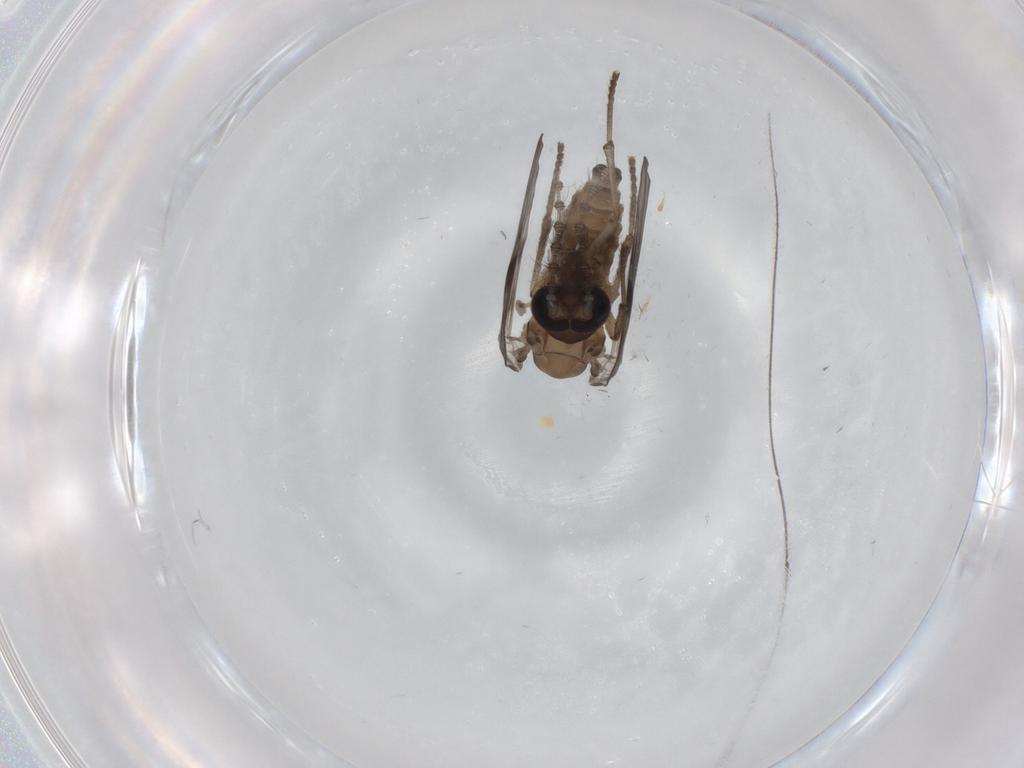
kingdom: Animalia
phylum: Arthropoda
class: Insecta
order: Diptera
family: Psychodidae
